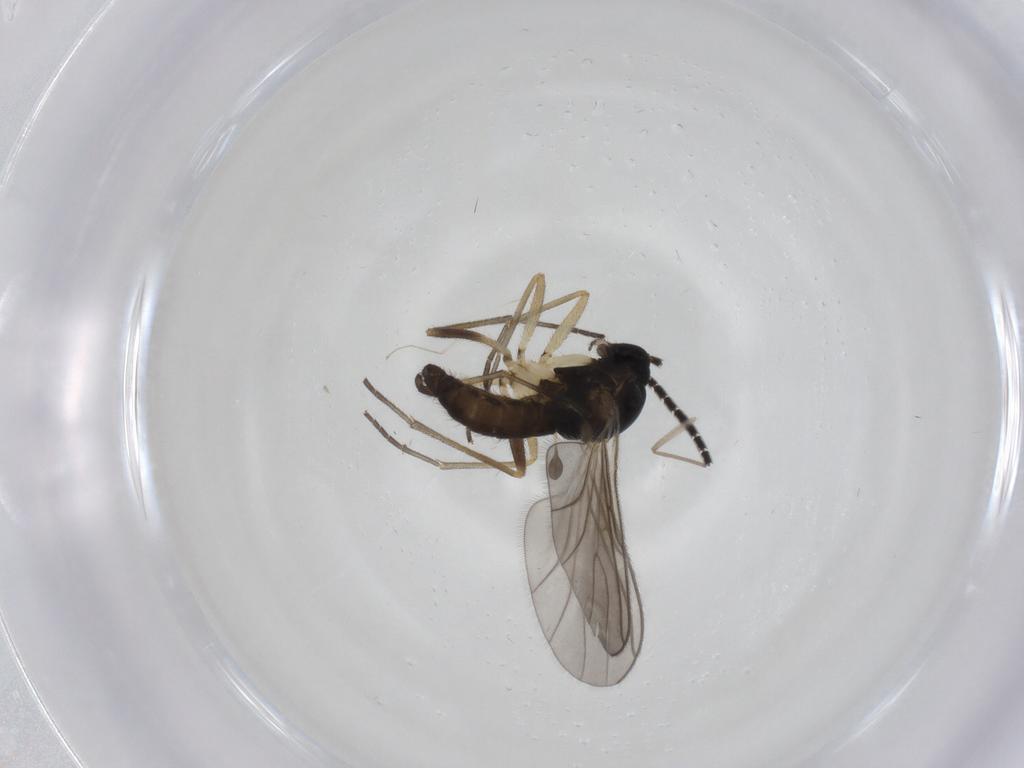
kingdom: Animalia
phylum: Arthropoda
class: Insecta
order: Diptera
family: Sciaridae
